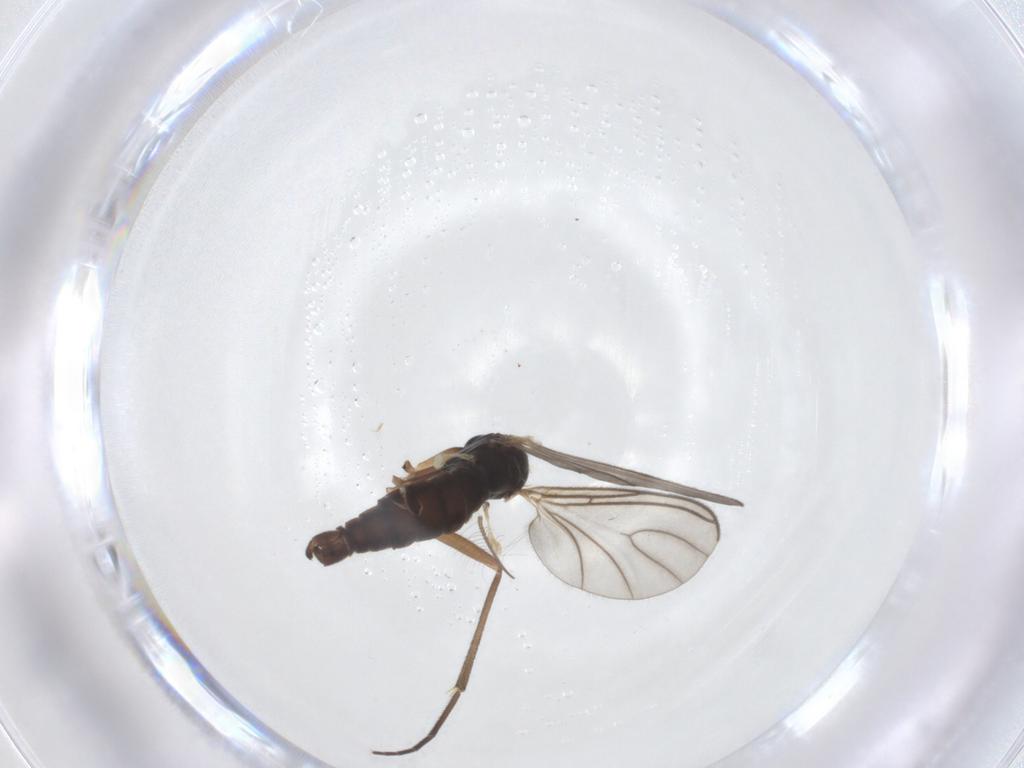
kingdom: Animalia
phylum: Arthropoda
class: Insecta
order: Diptera
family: Sciaridae
